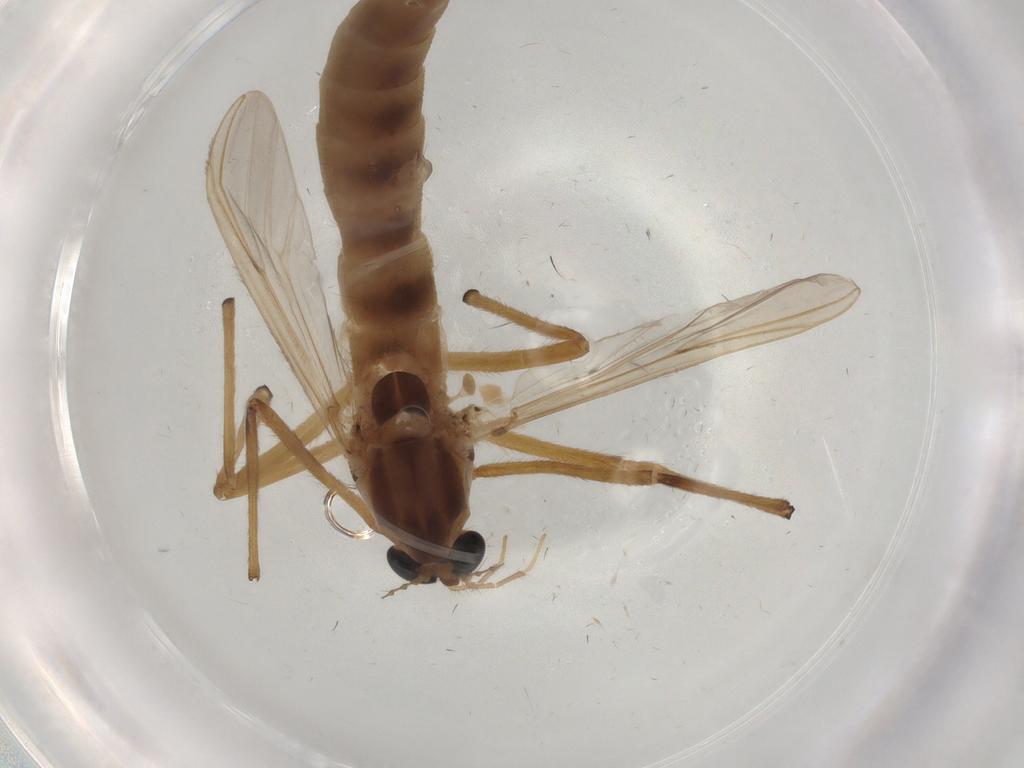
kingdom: Animalia
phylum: Arthropoda
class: Insecta
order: Diptera
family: Chironomidae
